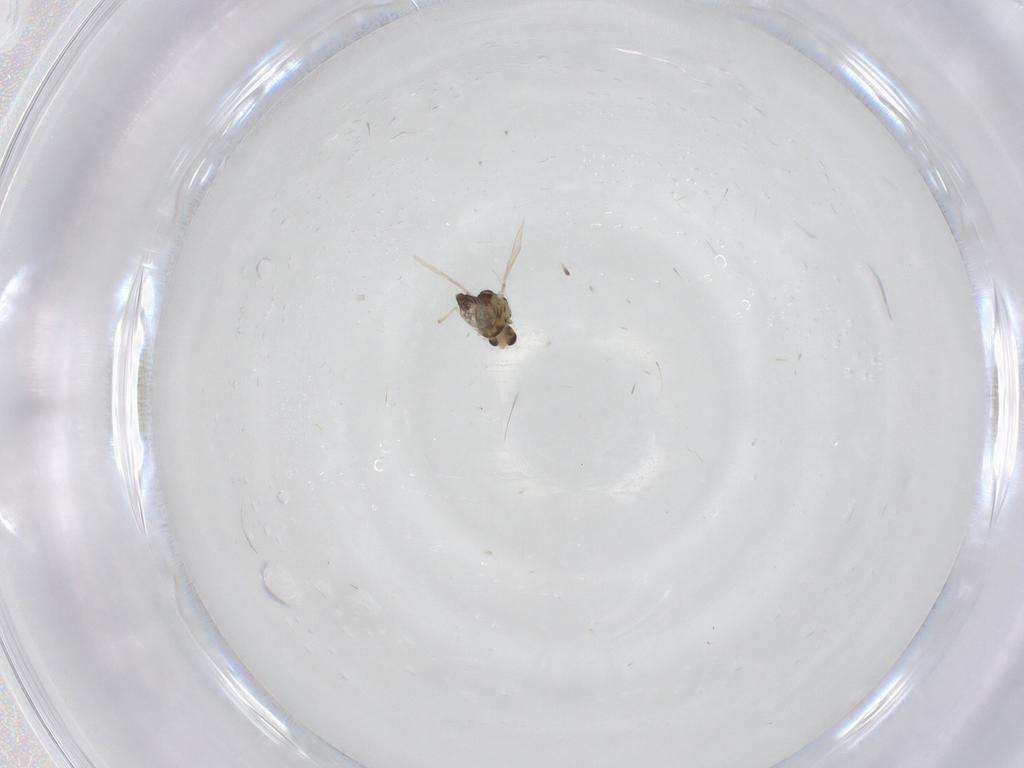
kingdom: Animalia
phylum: Arthropoda
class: Insecta
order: Diptera
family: Chironomidae
